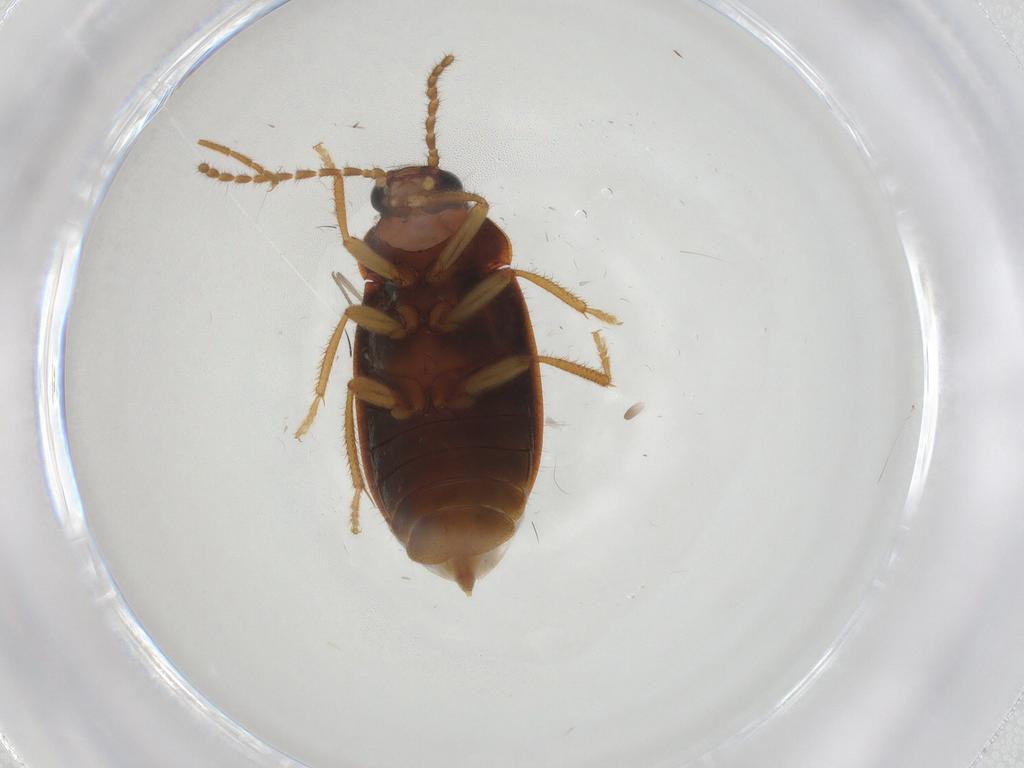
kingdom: Animalia
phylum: Arthropoda
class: Insecta
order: Coleoptera
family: Ptilodactylidae
